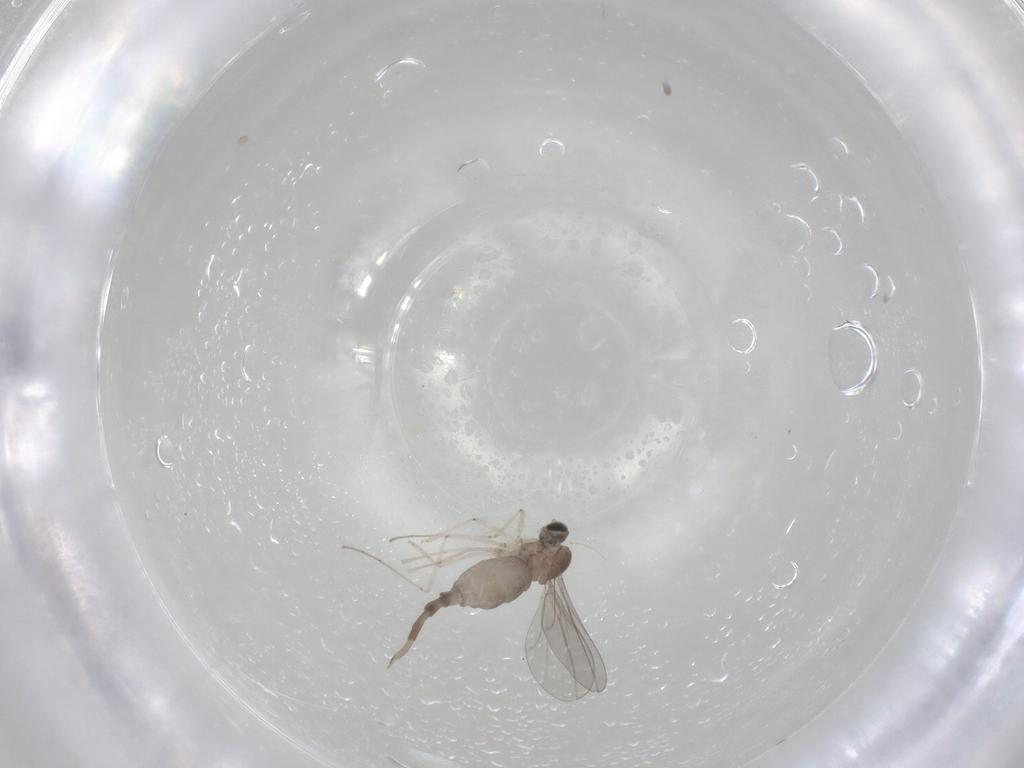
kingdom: Animalia
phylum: Arthropoda
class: Insecta
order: Diptera
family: Cecidomyiidae
